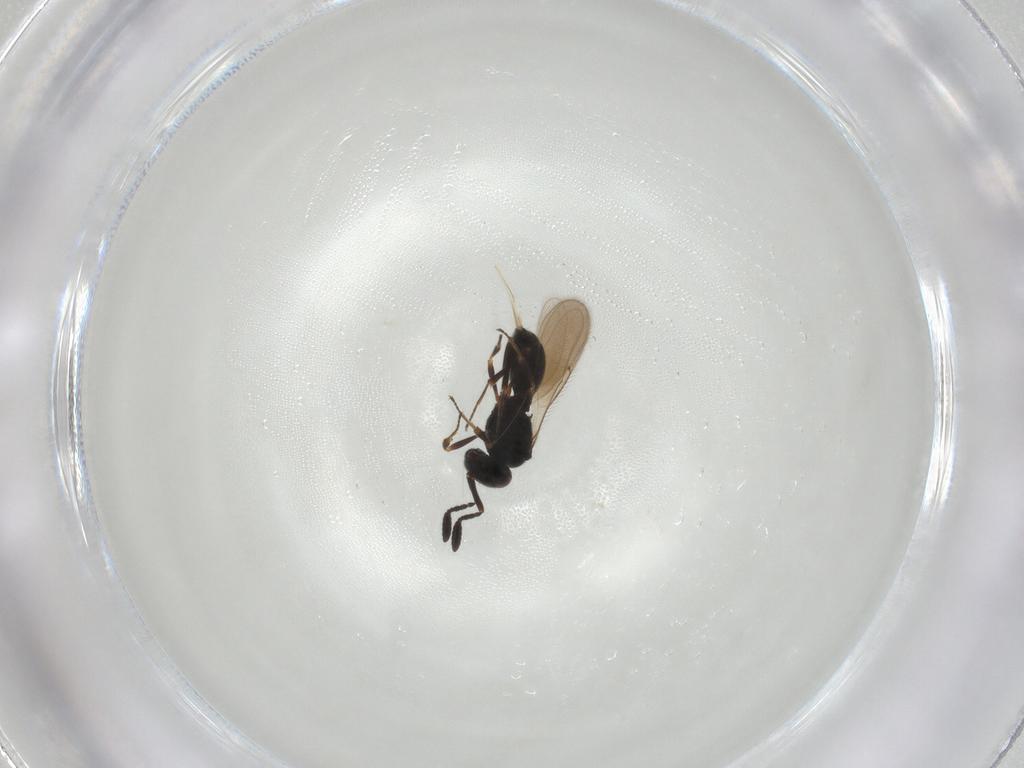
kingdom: Animalia
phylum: Arthropoda
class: Insecta
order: Hymenoptera
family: Scelionidae
